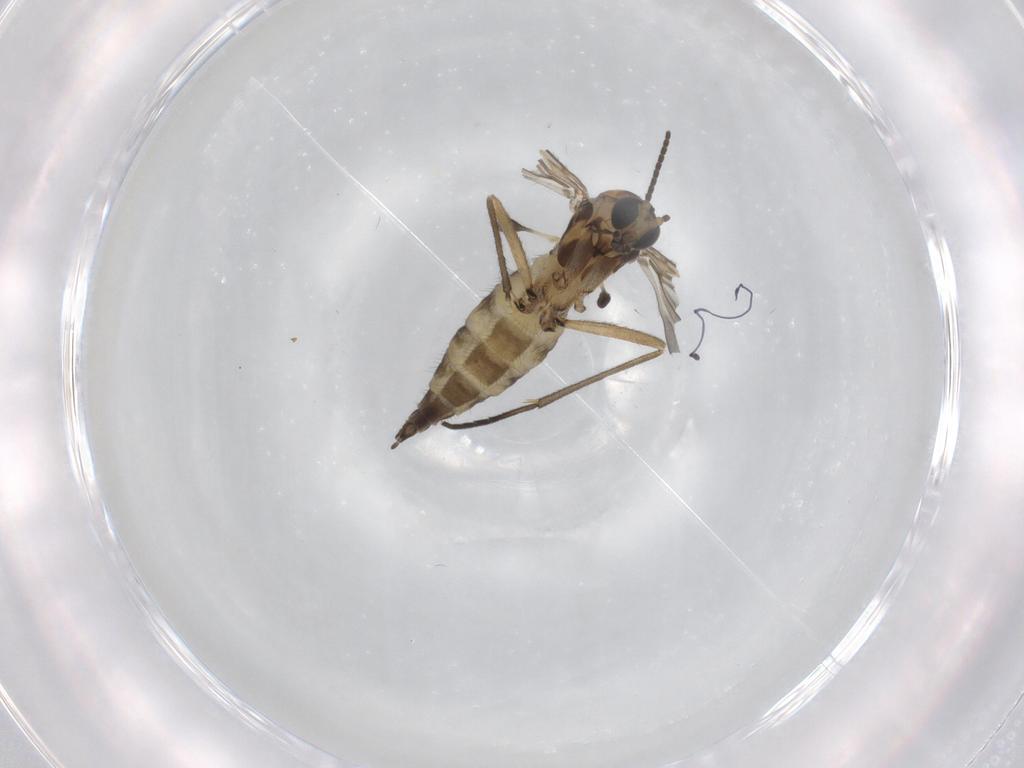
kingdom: Animalia
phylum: Arthropoda
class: Insecta
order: Diptera
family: Sciaridae
